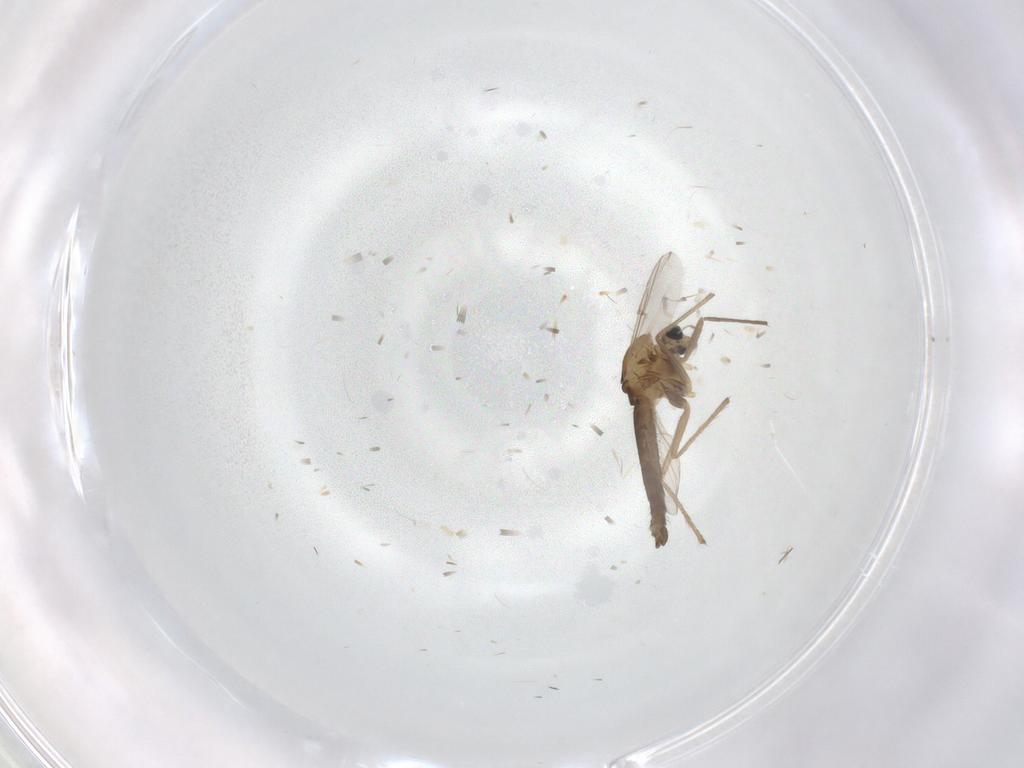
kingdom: Animalia
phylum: Arthropoda
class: Insecta
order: Diptera
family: Chironomidae
